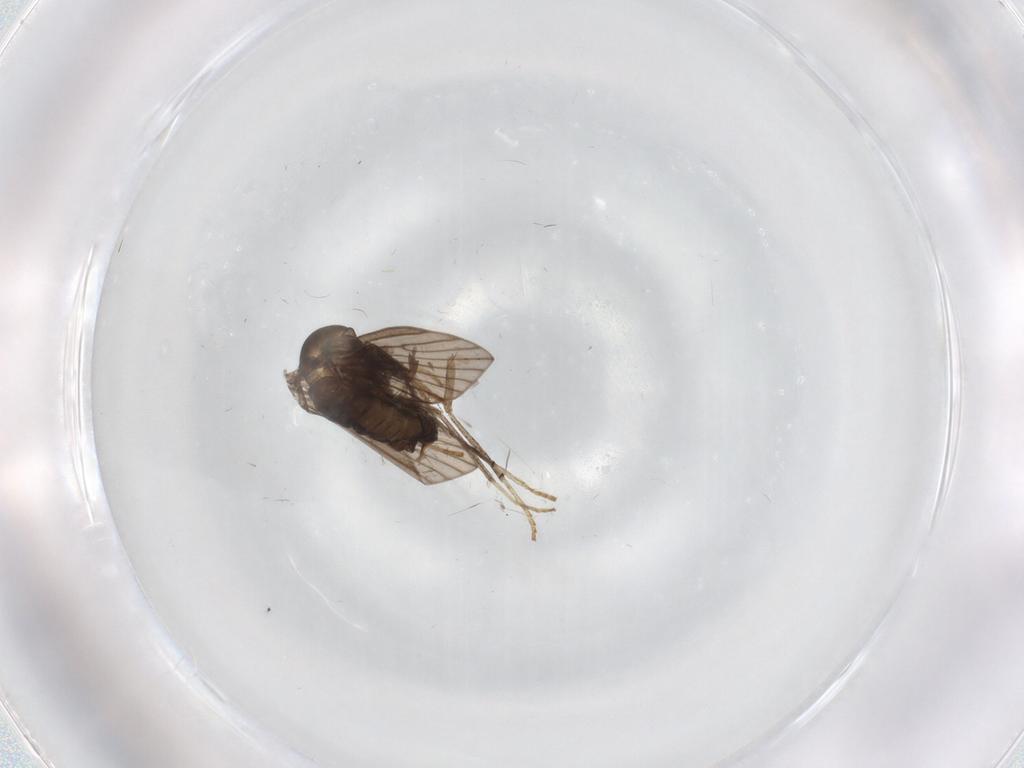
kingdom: Animalia
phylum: Arthropoda
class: Insecta
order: Diptera
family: Psychodidae
